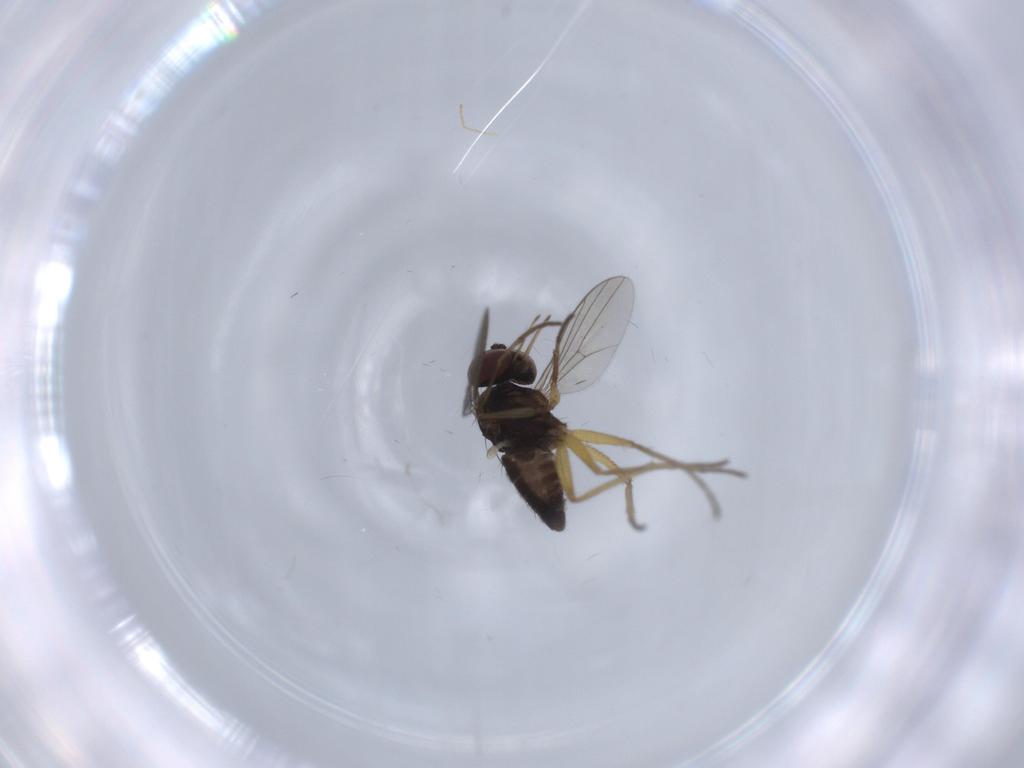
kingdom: Animalia
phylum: Arthropoda
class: Insecta
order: Diptera
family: Dolichopodidae
